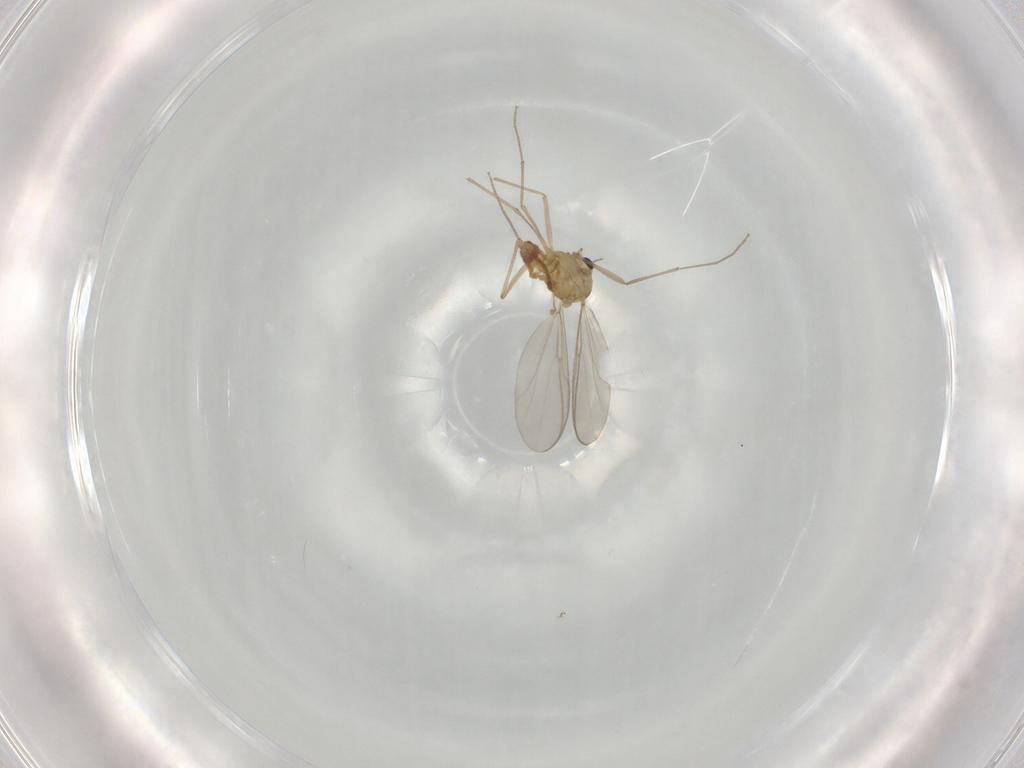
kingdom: Animalia
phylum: Arthropoda
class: Insecta
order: Diptera
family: Chironomidae
